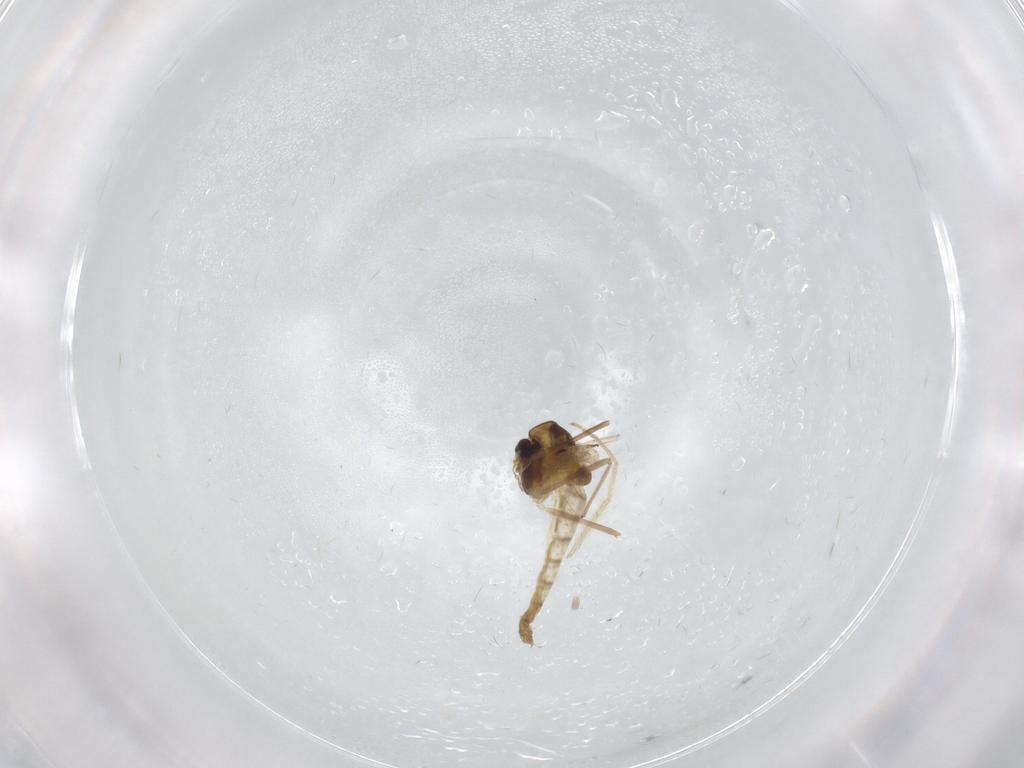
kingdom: Animalia
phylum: Arthropoda
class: Insecta
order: Diptera
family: Chironomidae
